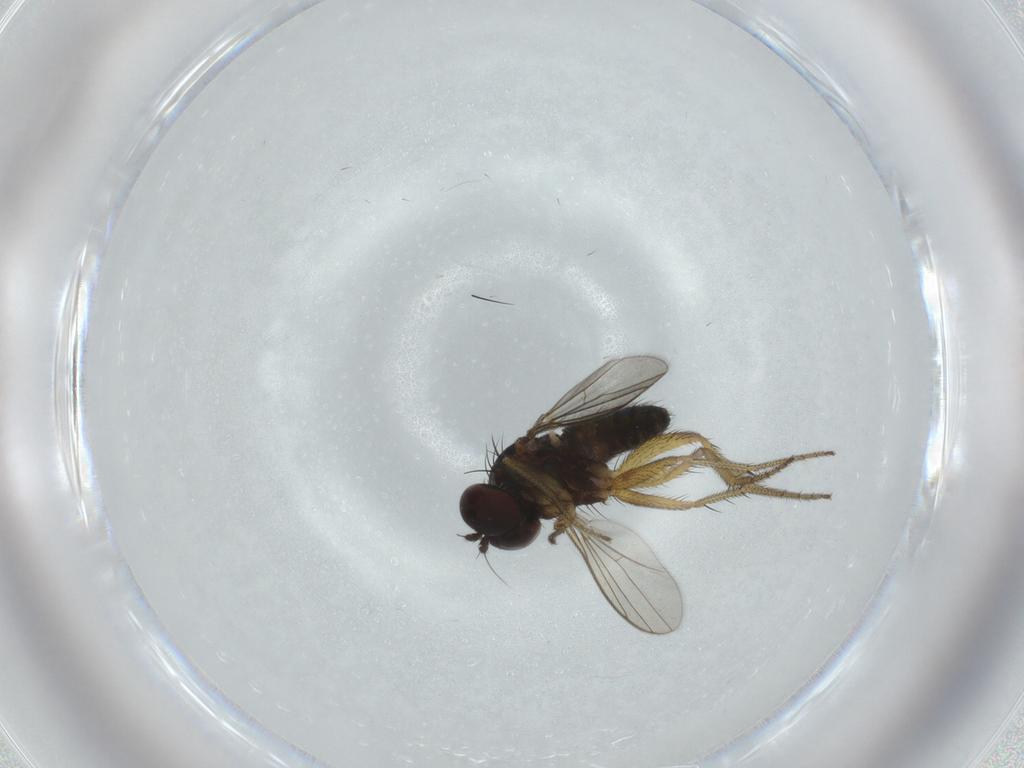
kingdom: Animalia
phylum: Arthropoda
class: Insecta
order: Diptera
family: Dolichopodidae
